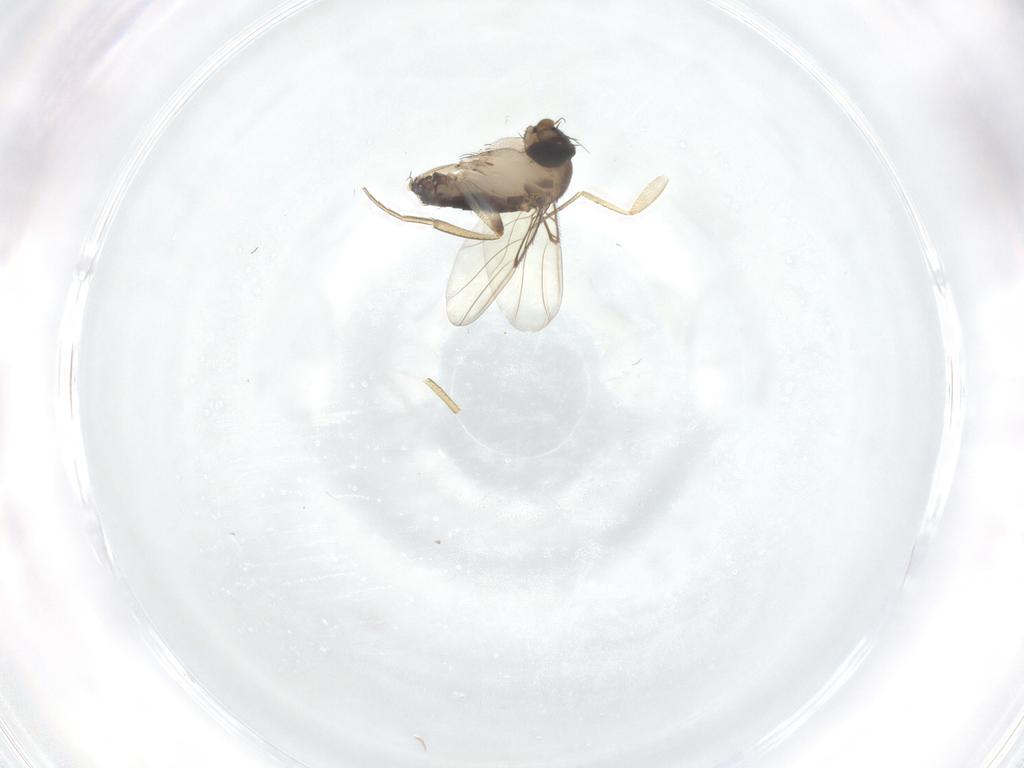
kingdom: Animalia
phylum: Arthropoda
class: Insecta
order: Diptera
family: Phoridae
